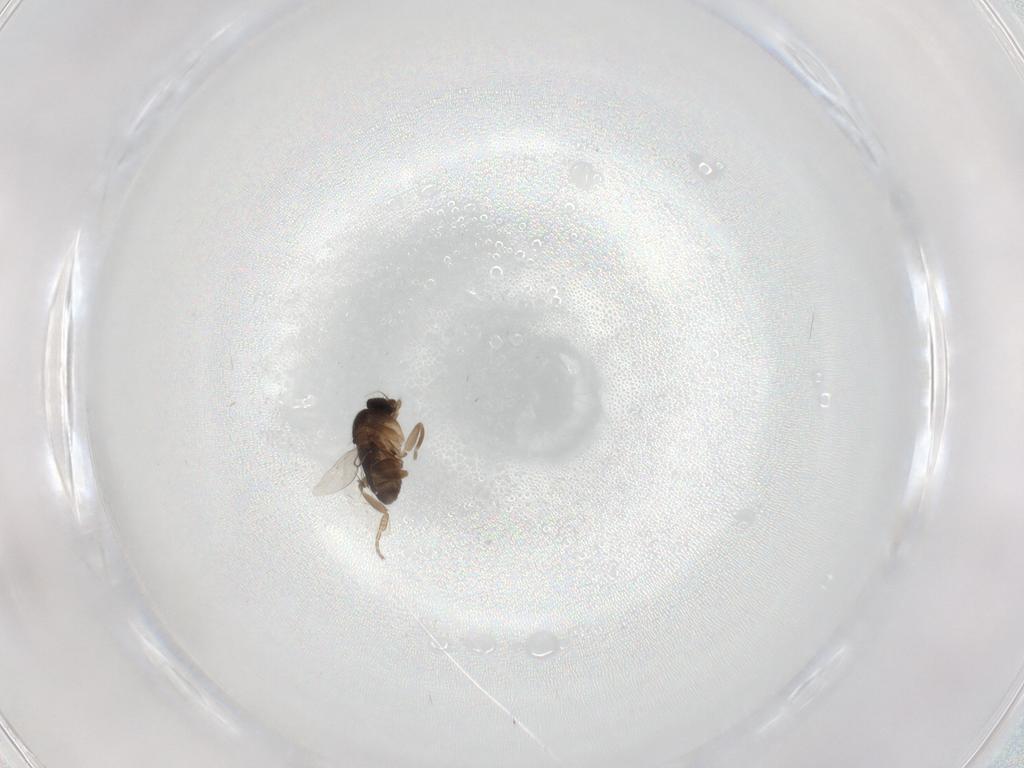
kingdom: Animalia
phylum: Arthropoda
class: Insecta
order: Diptera
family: Phoridae
